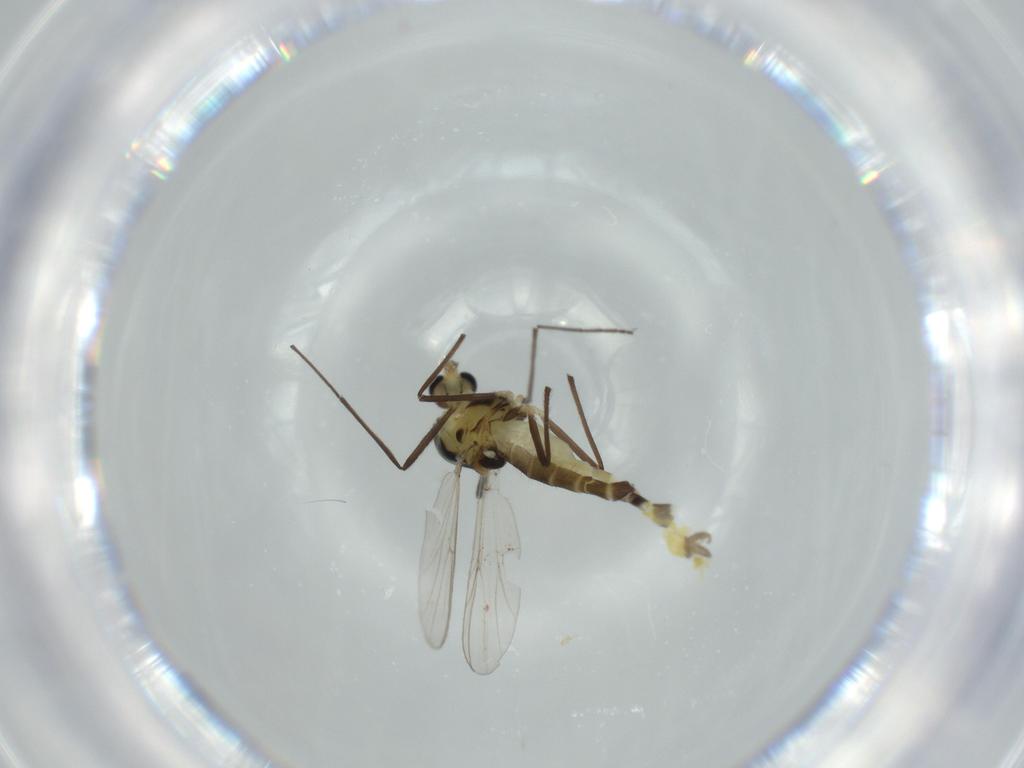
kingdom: Animalia
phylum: Arthropoda
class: Insecta
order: Diptera
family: Chironomidae
